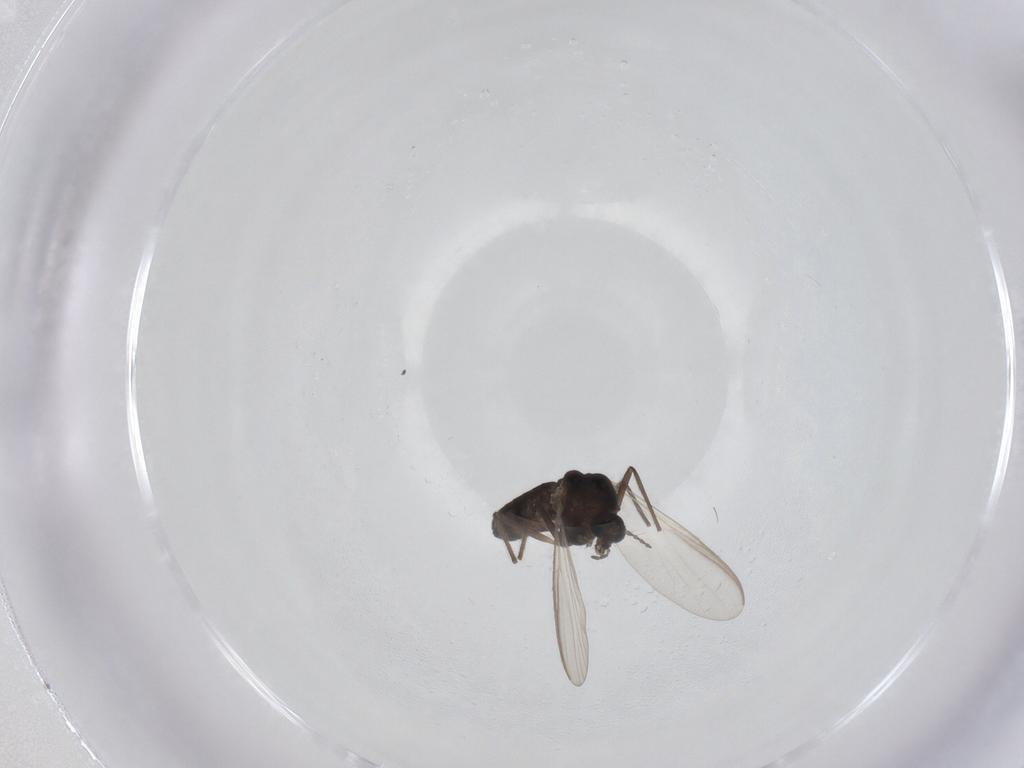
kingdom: Animalia
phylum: Arthropoda
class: Insecta
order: Diptera
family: Chironomidae
